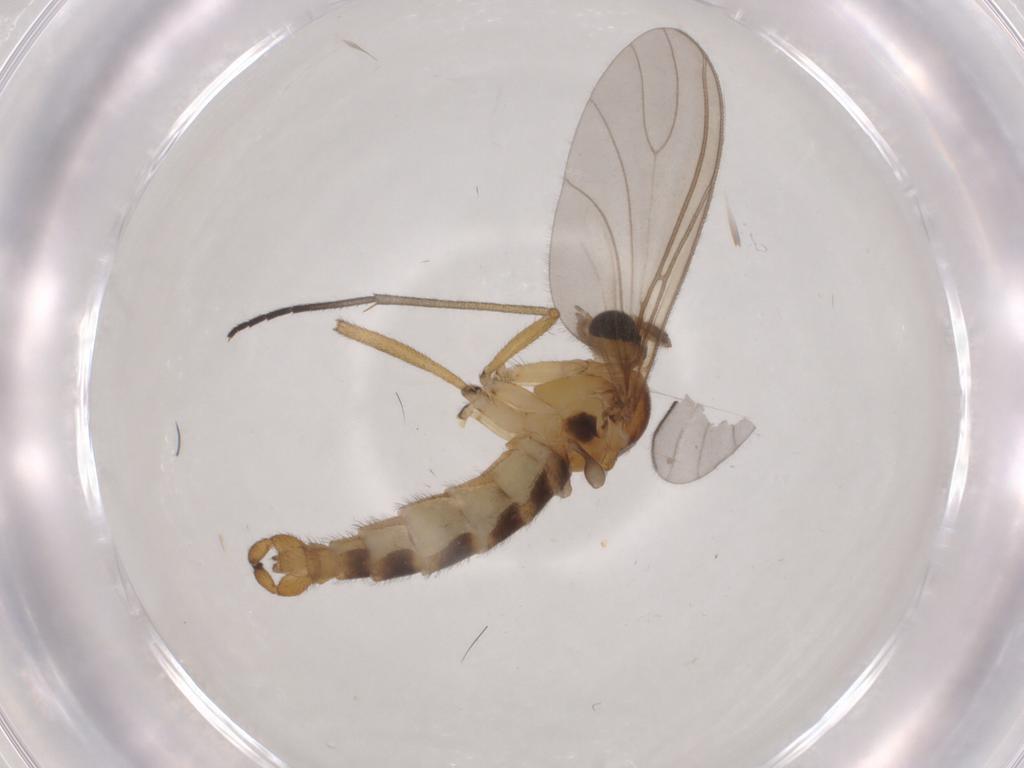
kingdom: Animalia
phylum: Arthropoda
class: Insecta
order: Diptera
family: Sciaridae
